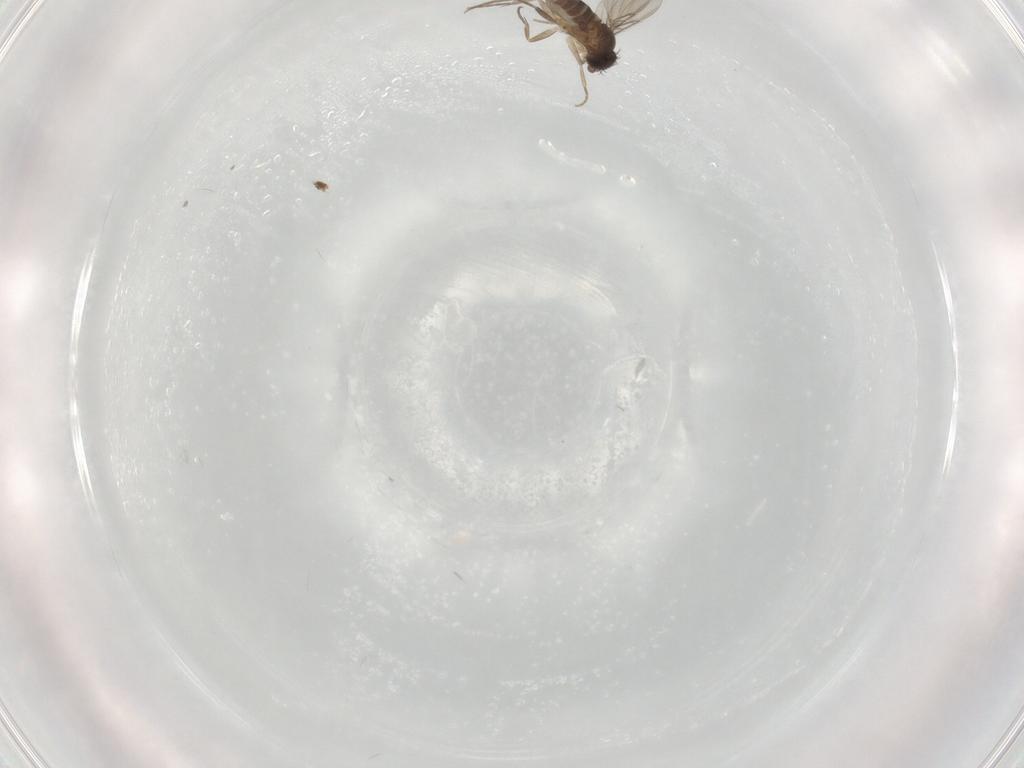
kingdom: Animalia
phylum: Arthropoda
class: Insecta
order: Diptera
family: Phoridae
